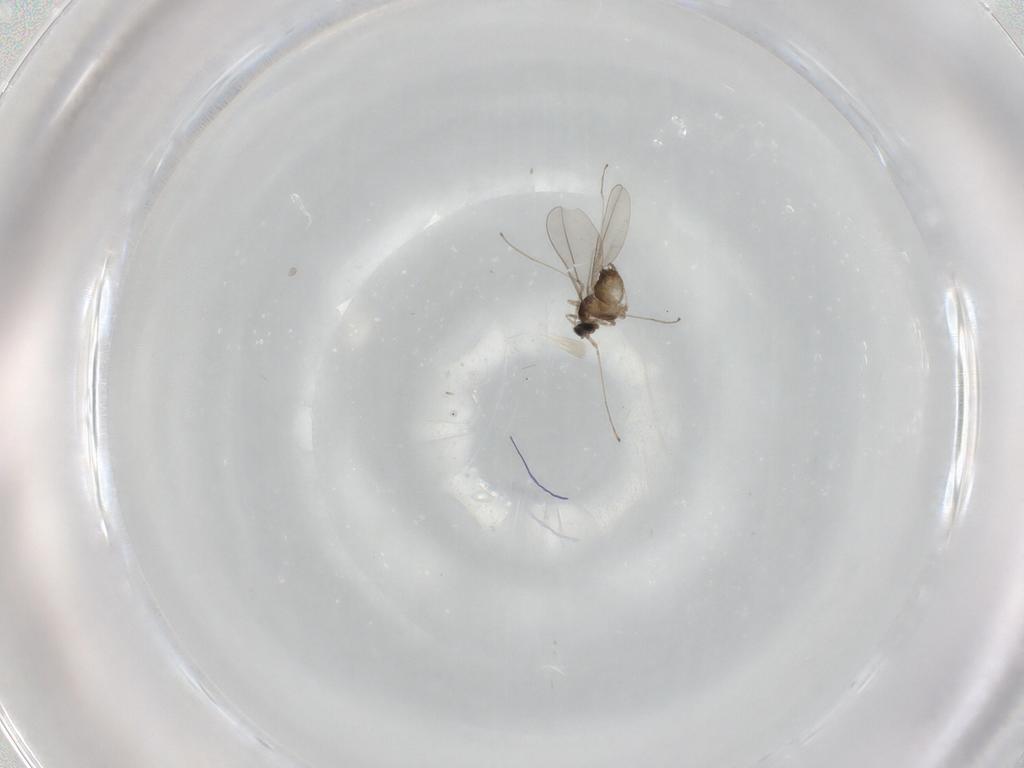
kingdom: Animalia
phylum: Arthropoda
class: Insecta
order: Diptera
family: Cecidomyiidae
